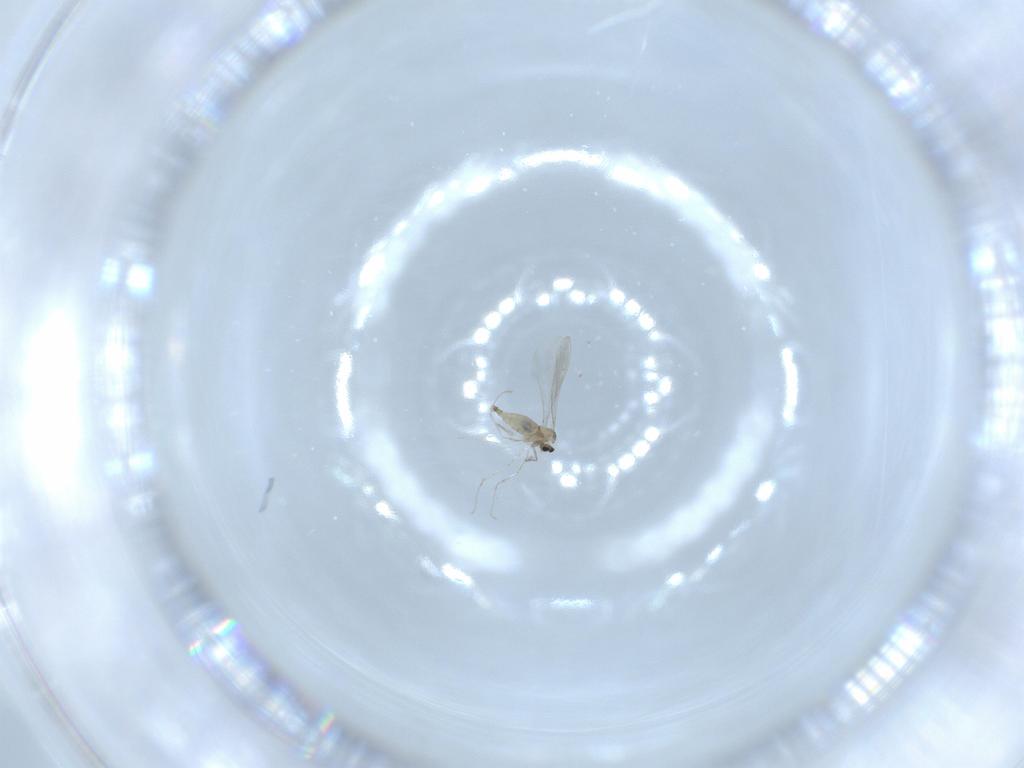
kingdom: Animalia
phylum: Arthropoda
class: Insecta
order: Diptera
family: Cecidomyiidae
